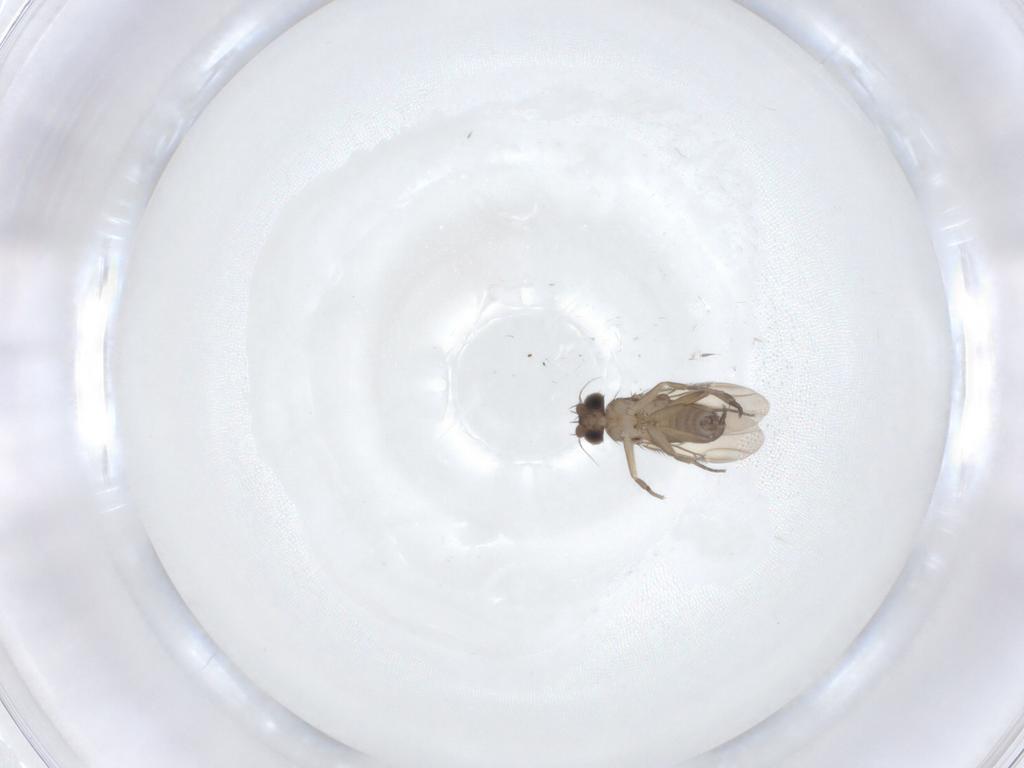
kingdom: Animalia
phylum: Arthropoda
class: Insecta
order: Diptera
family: Phoridae
